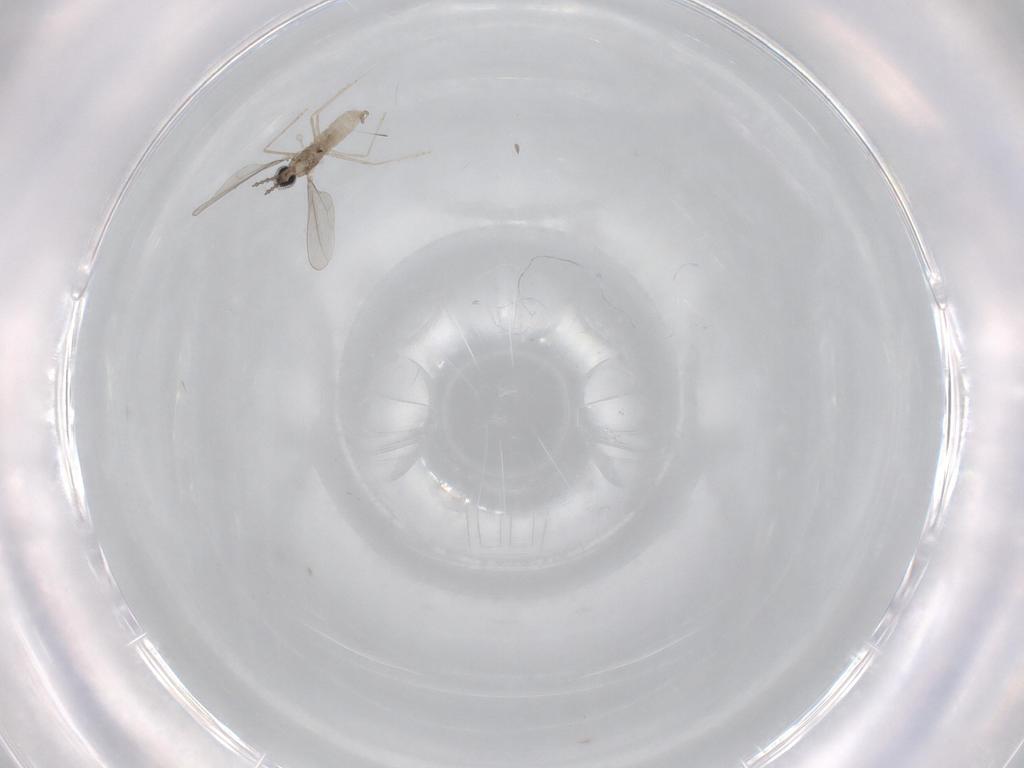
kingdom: Animalia
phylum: Arthropoda
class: Insecta
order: Diptera
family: Cecidomyiidae
